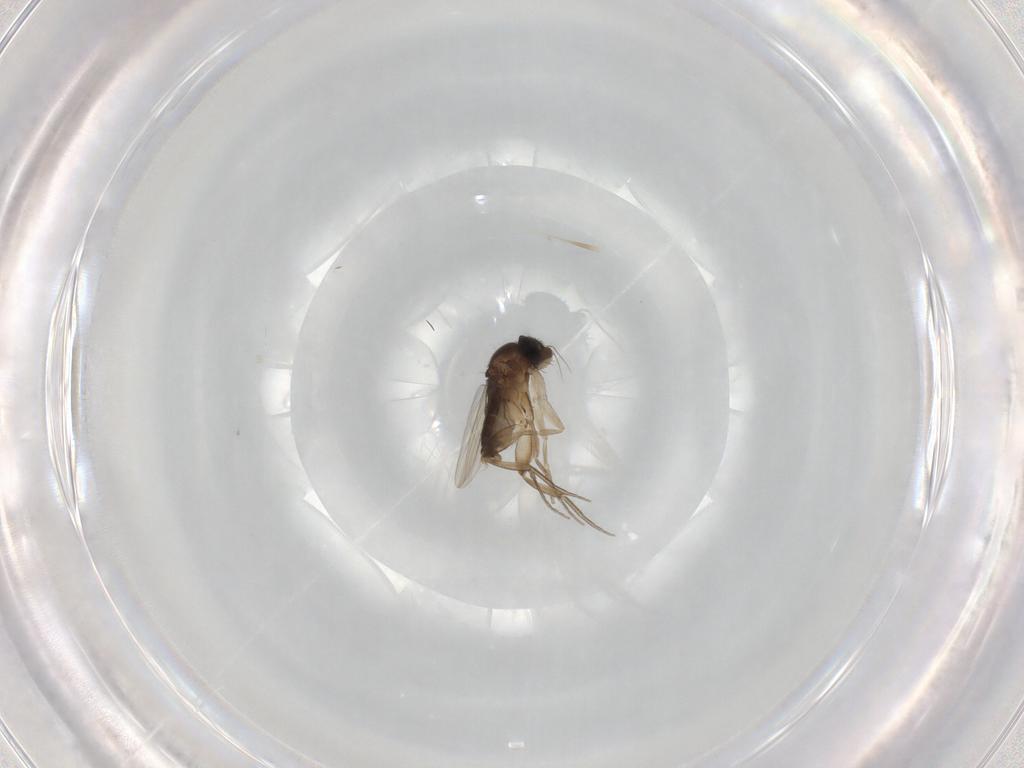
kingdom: Animalia
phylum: Arthropoda
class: Insecta
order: Diptera
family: Phoridae
